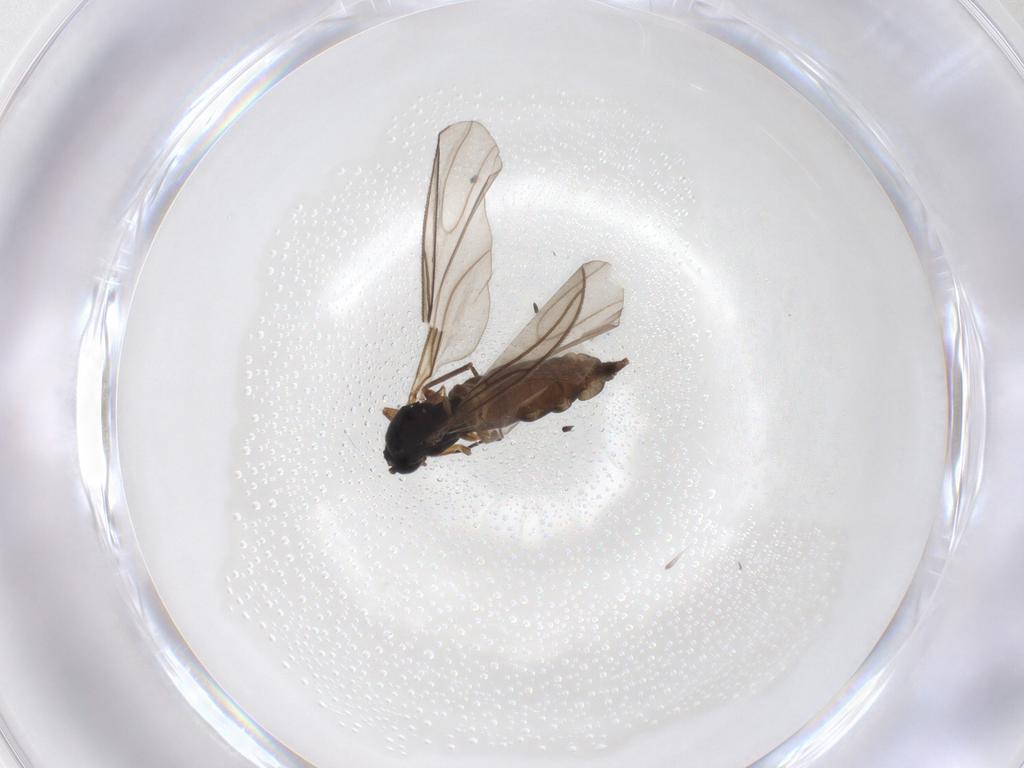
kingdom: Animalia
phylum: Arthropoda
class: Insecta
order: Diptera
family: Sciaridae
